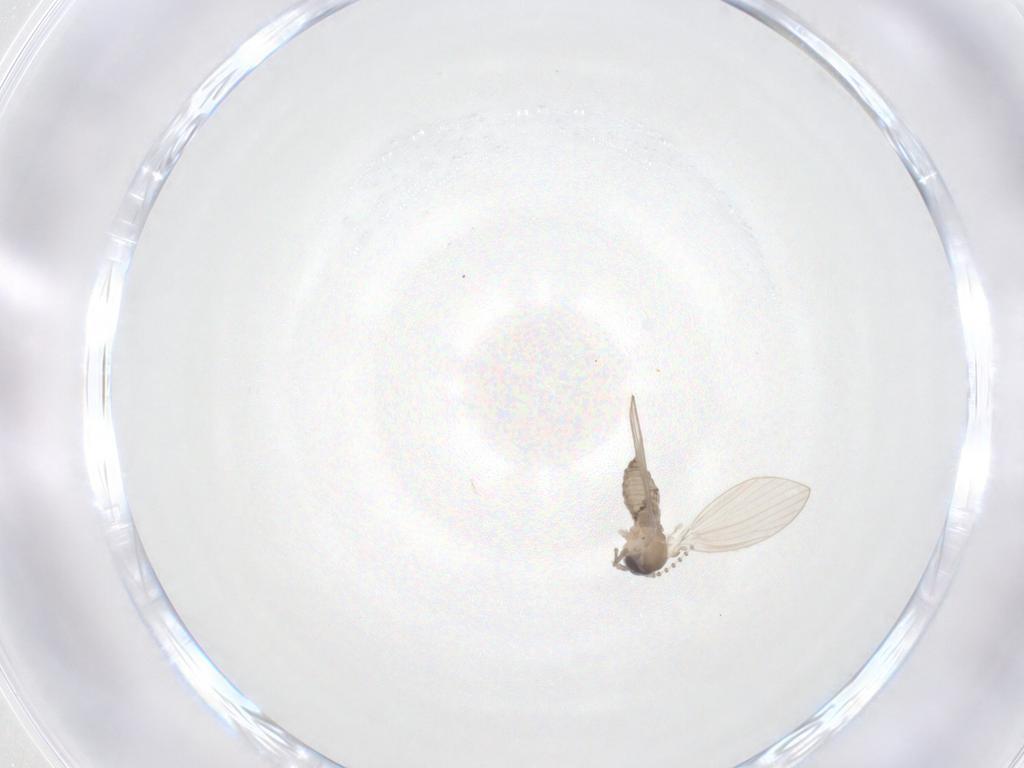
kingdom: Animalia
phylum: Arthropoda
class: Insecta
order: Diptera
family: Psychodidae
